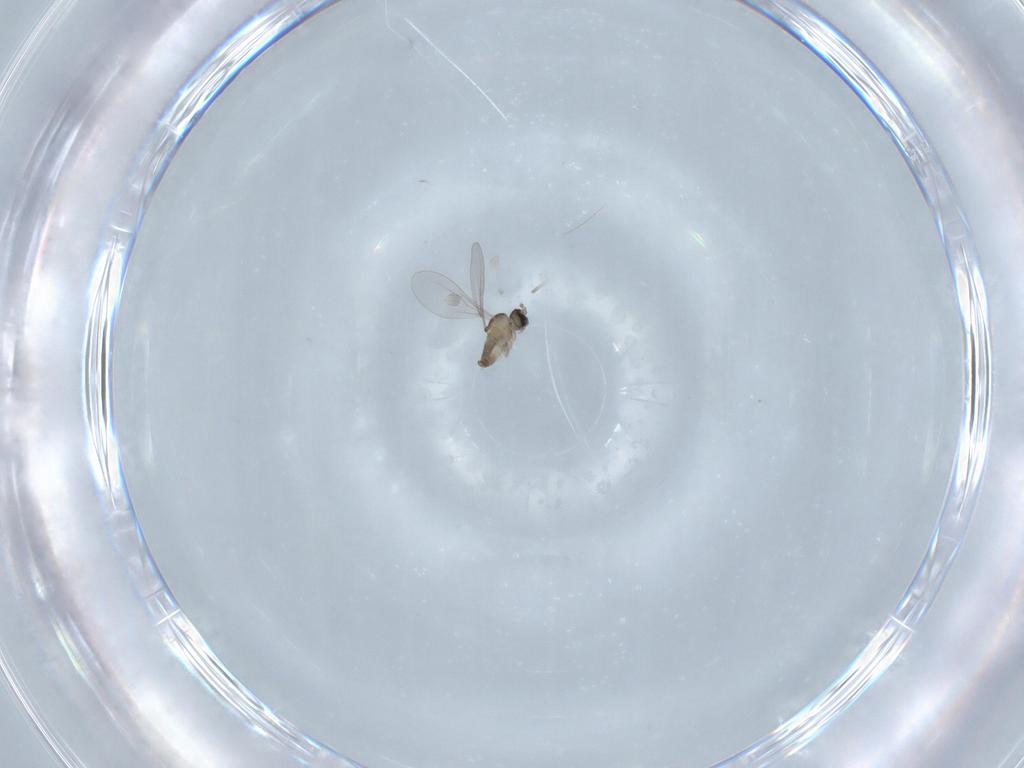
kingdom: Animalia
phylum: Arthropoda
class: Insecta
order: Diptera
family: Cecidomyiidae
